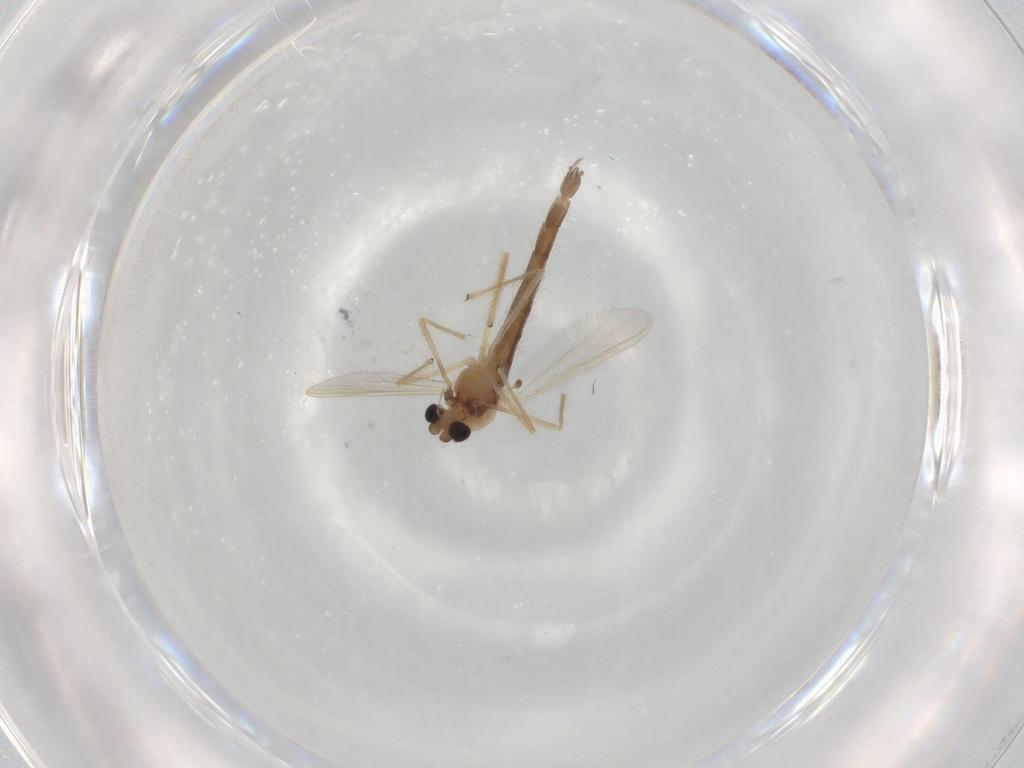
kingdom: Animalia
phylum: Arthropoda
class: Insecta
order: Diptera
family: Chironomidae
